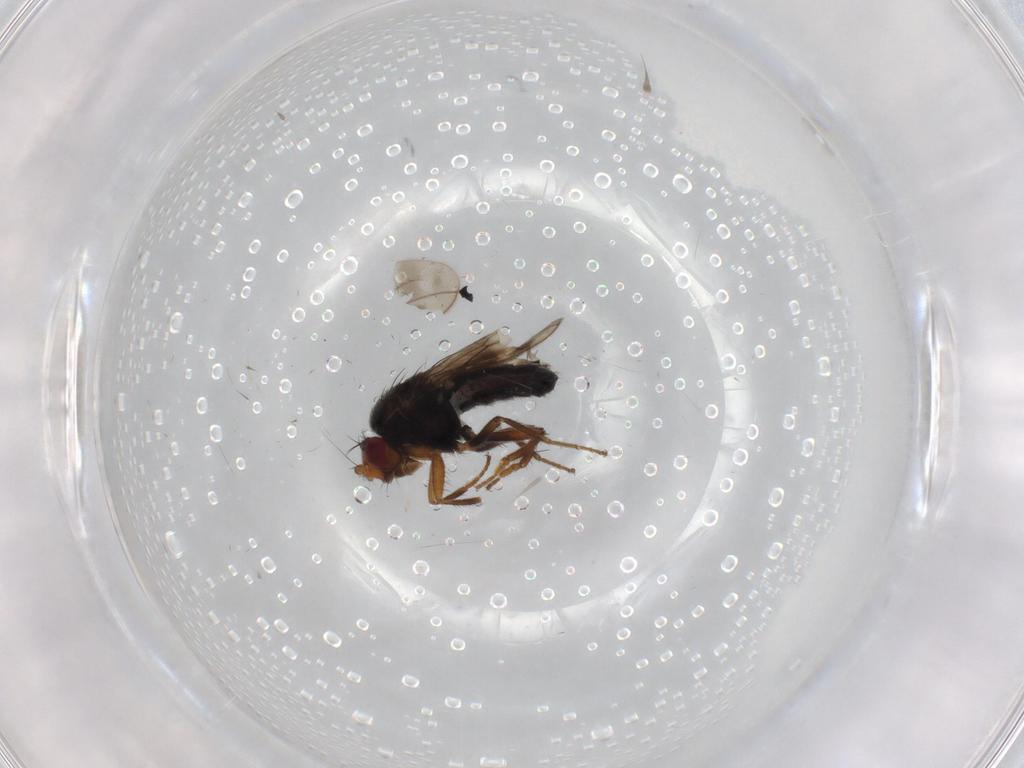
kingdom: Animalia
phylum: Arthropoda
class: Insecta
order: Diptera
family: Sphaeroceridae
